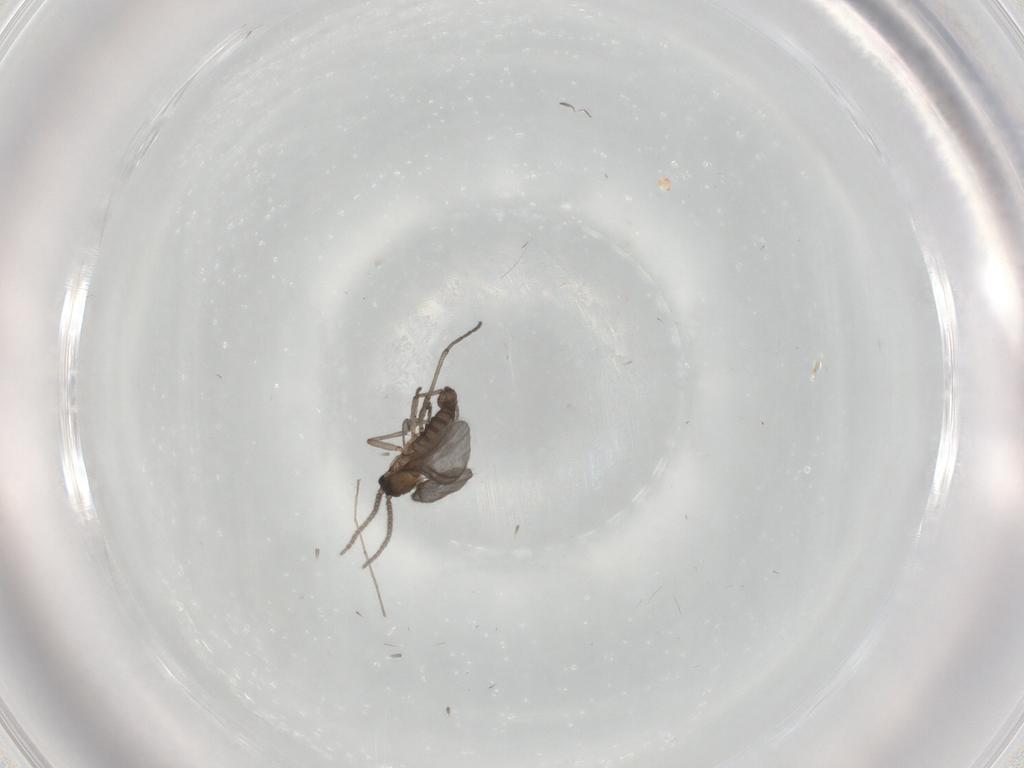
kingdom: Animalia
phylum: Arthropoda
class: Insecta
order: Diptera
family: Sciaridae
